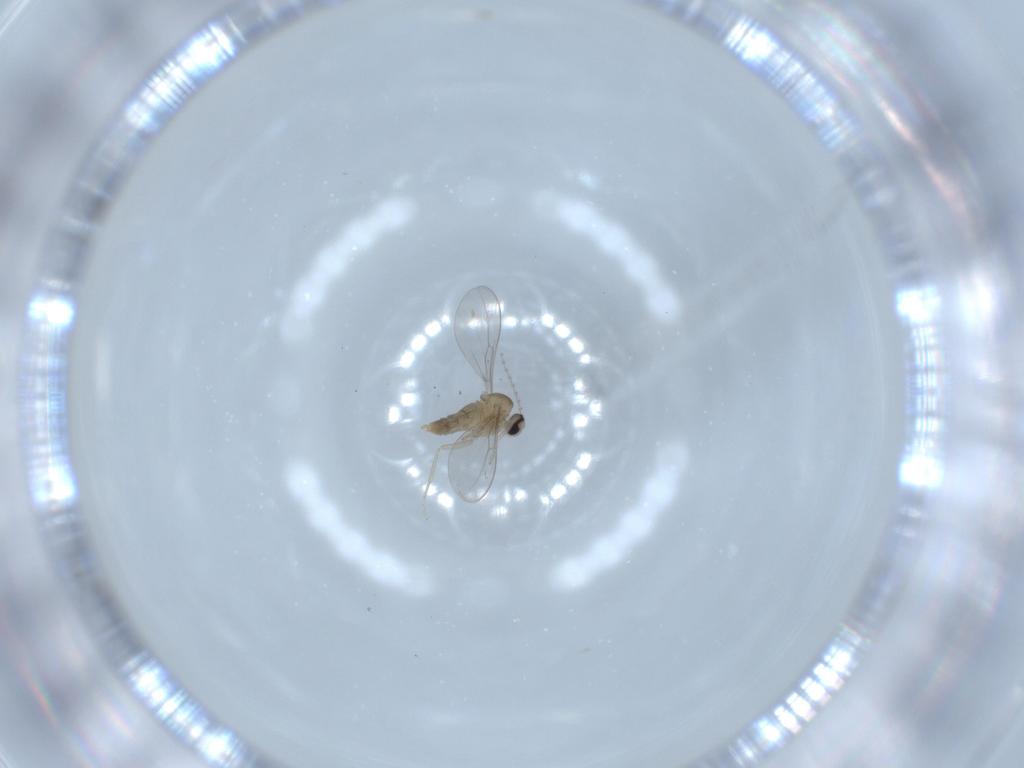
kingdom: Animalia
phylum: Arthropoda
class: Insecta
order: Diptera
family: Cecidomyiidae
